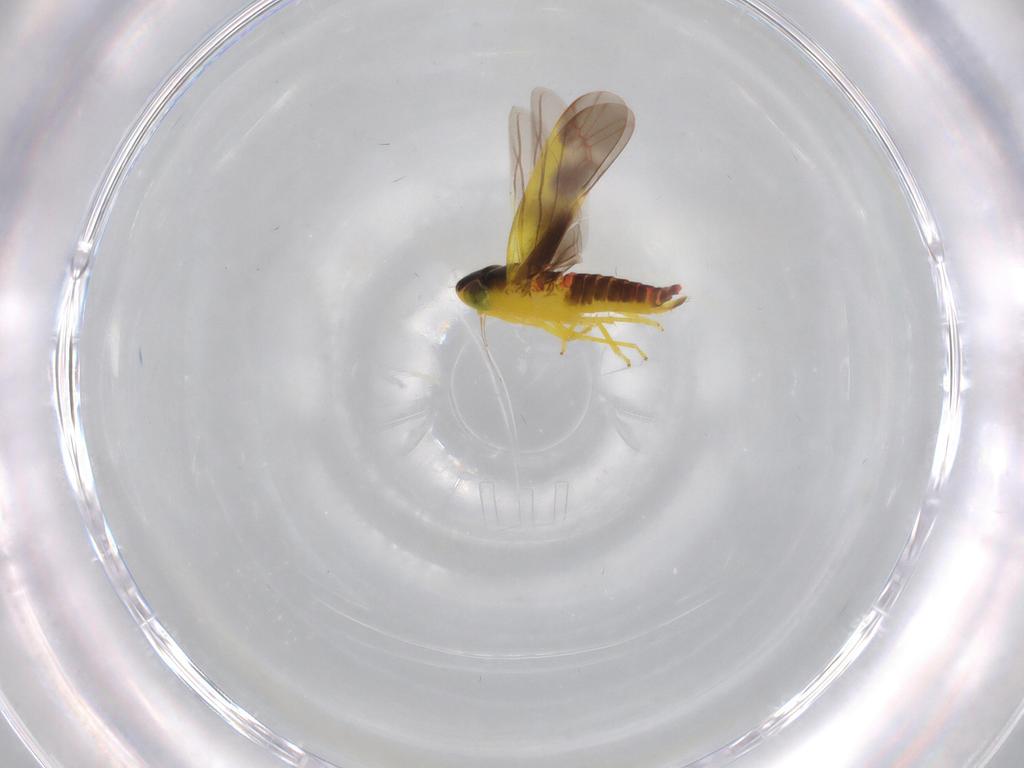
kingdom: Animalia
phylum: Arthropoda
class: Insecta
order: Hemiptera
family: Cicadellidae
